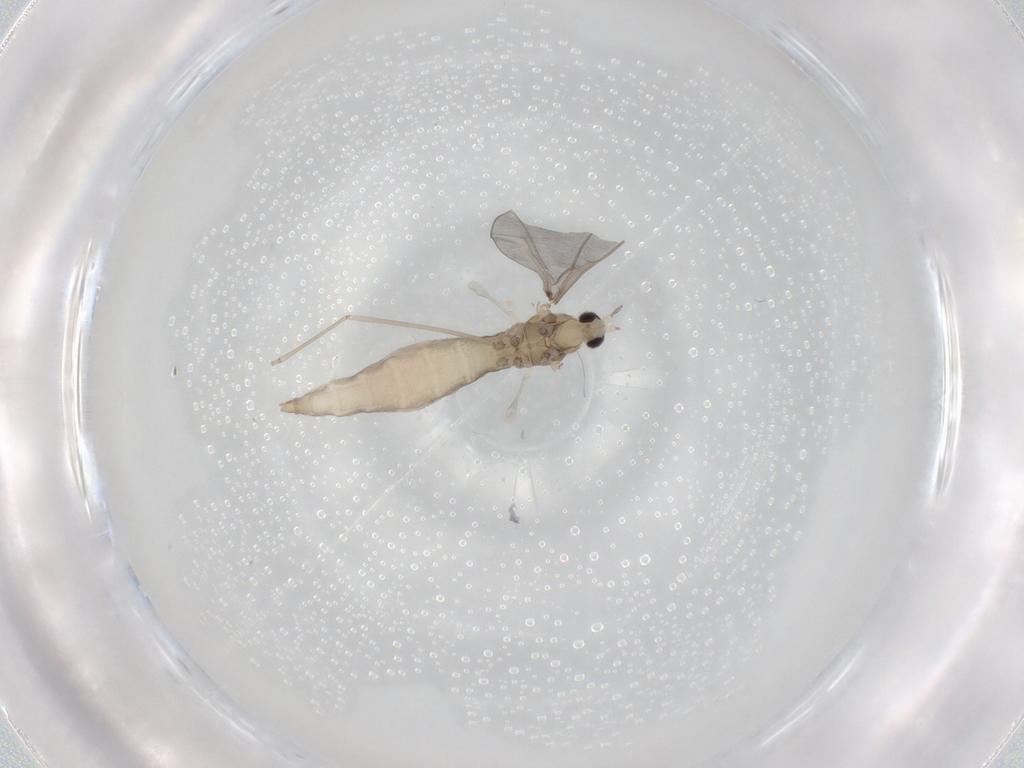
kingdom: Animalia
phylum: Arthropoda
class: Insecta
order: Diptera
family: Cecidomyiidae
